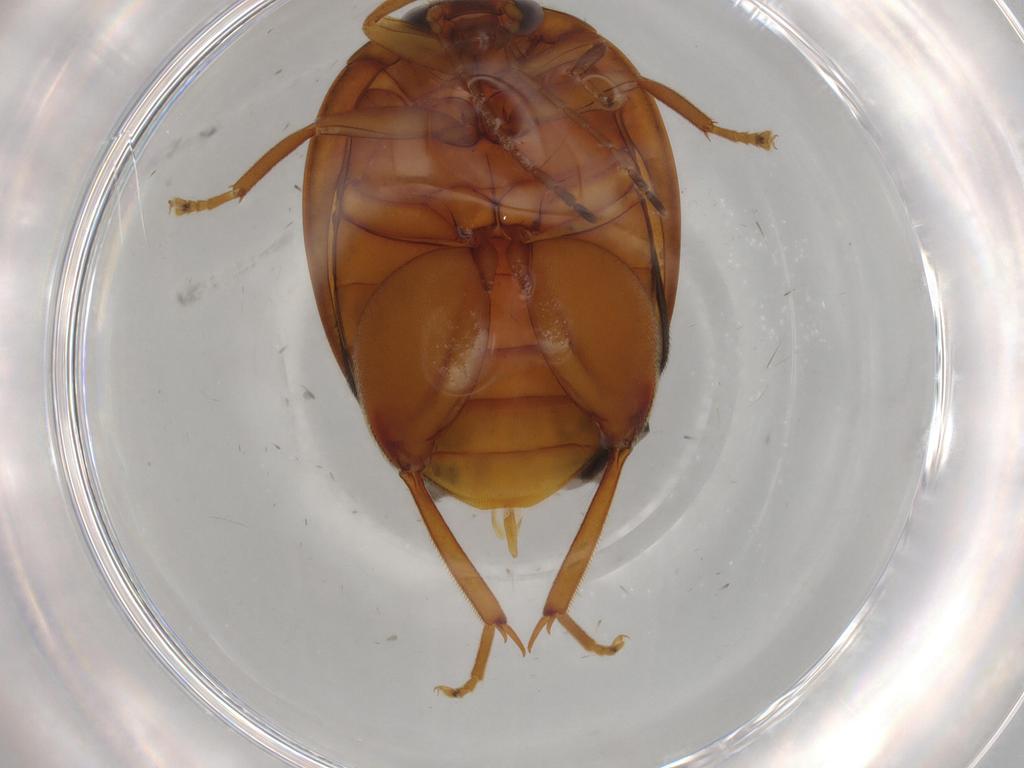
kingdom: Animalia
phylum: Arthropoda
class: Insecta
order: Coleoptera
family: Scirtidae
